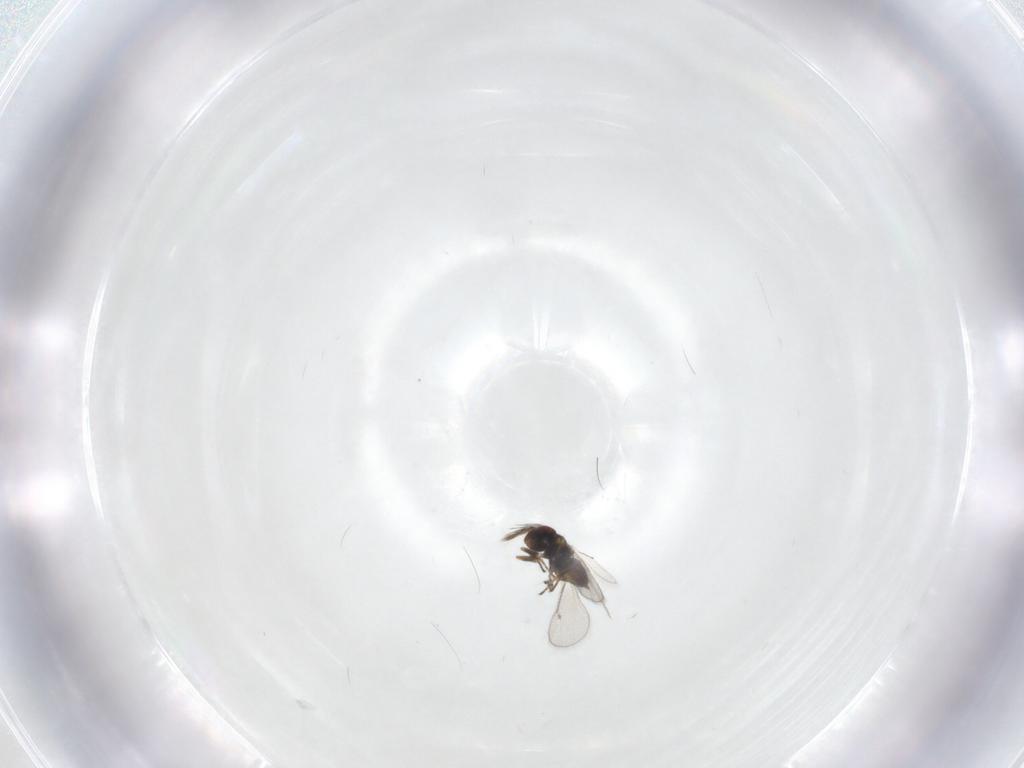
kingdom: Animalia
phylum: Arthropoda
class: Insecta
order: Hymenoptera
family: Eulophidae
